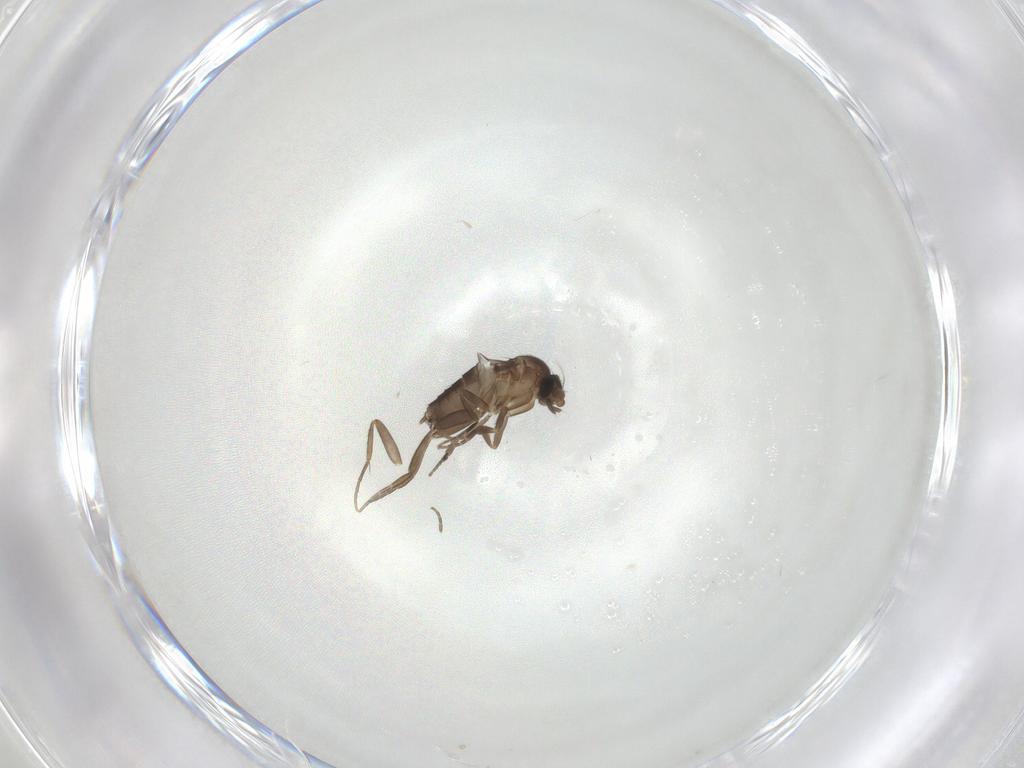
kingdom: Animalia
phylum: Arthropoda
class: Insecta
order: Diptera
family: Phoridae
